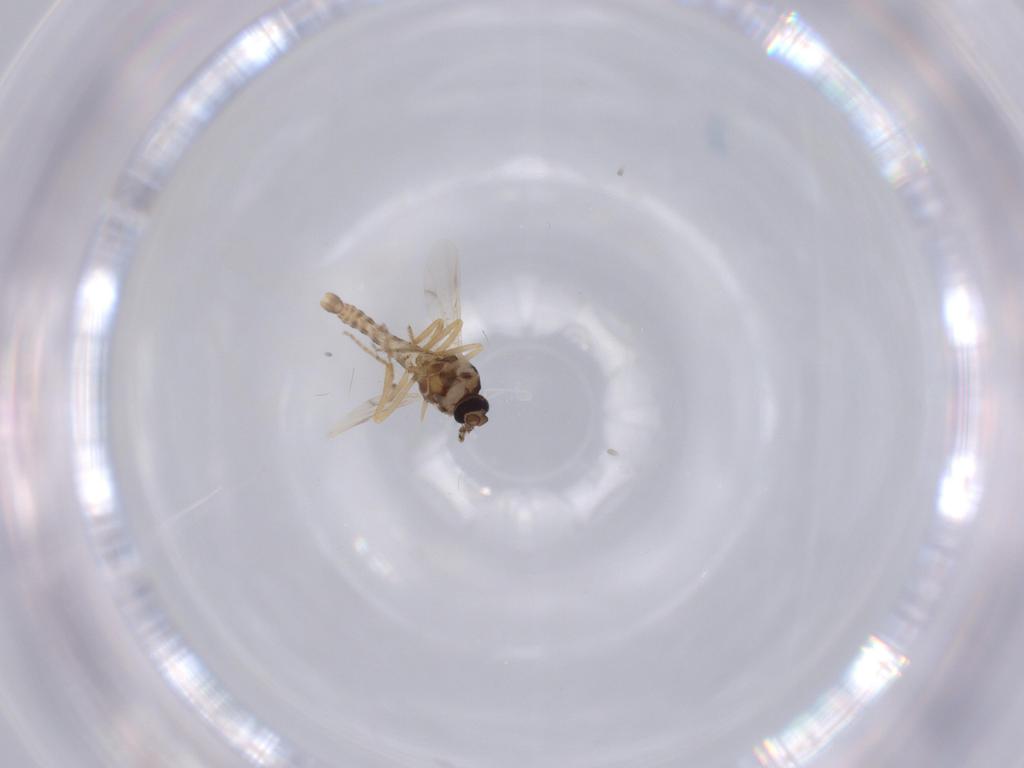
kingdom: Animalia
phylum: Arthropoda
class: Insecta
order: Diptera
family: Ceratopogonidae
